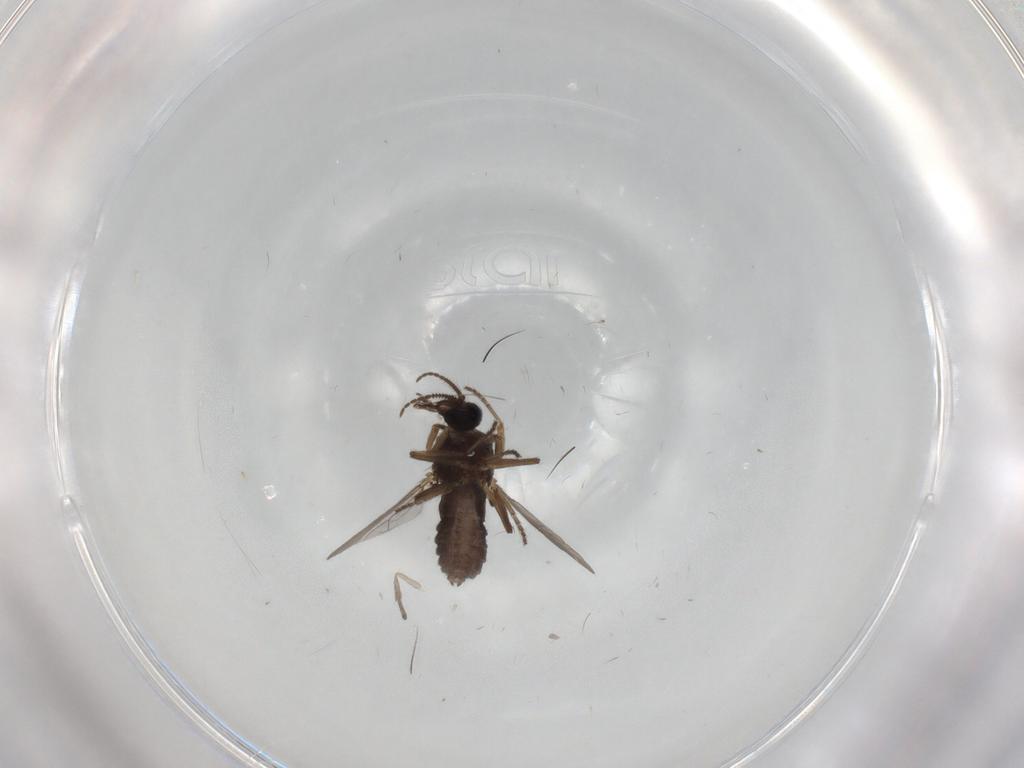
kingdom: Animalia
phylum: Arthropoda
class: Insecta
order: Diptera
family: Ceratopogonidae
